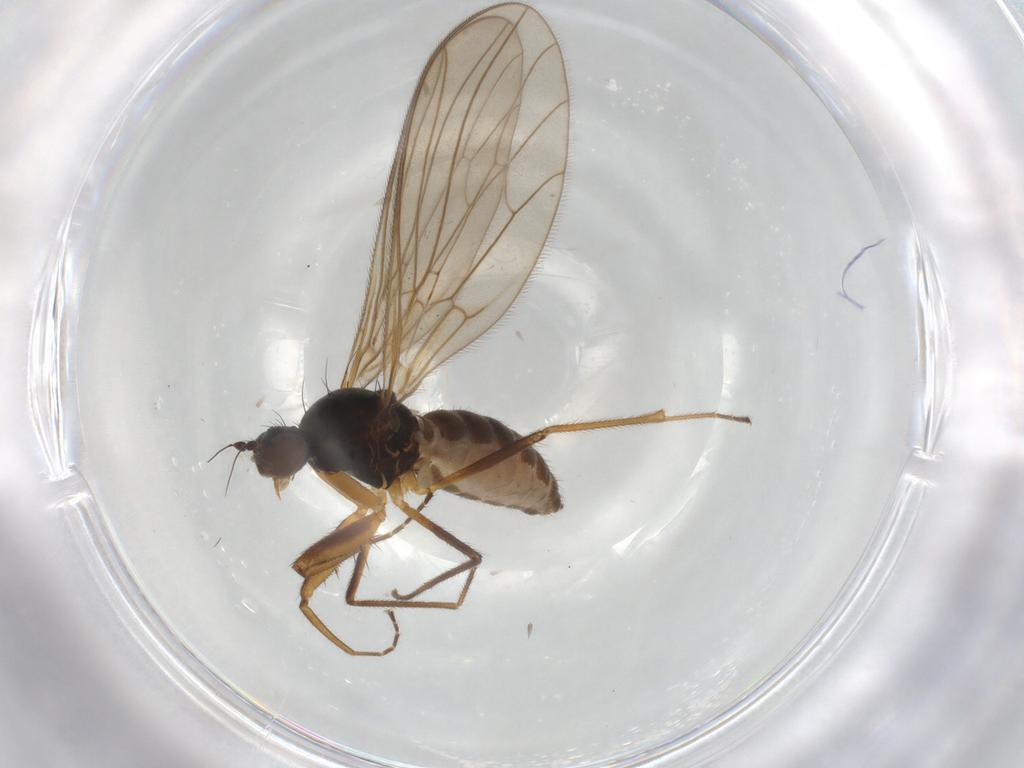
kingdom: Animalia
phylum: Arthropoda
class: Insecta
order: Diptera
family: Empididae
